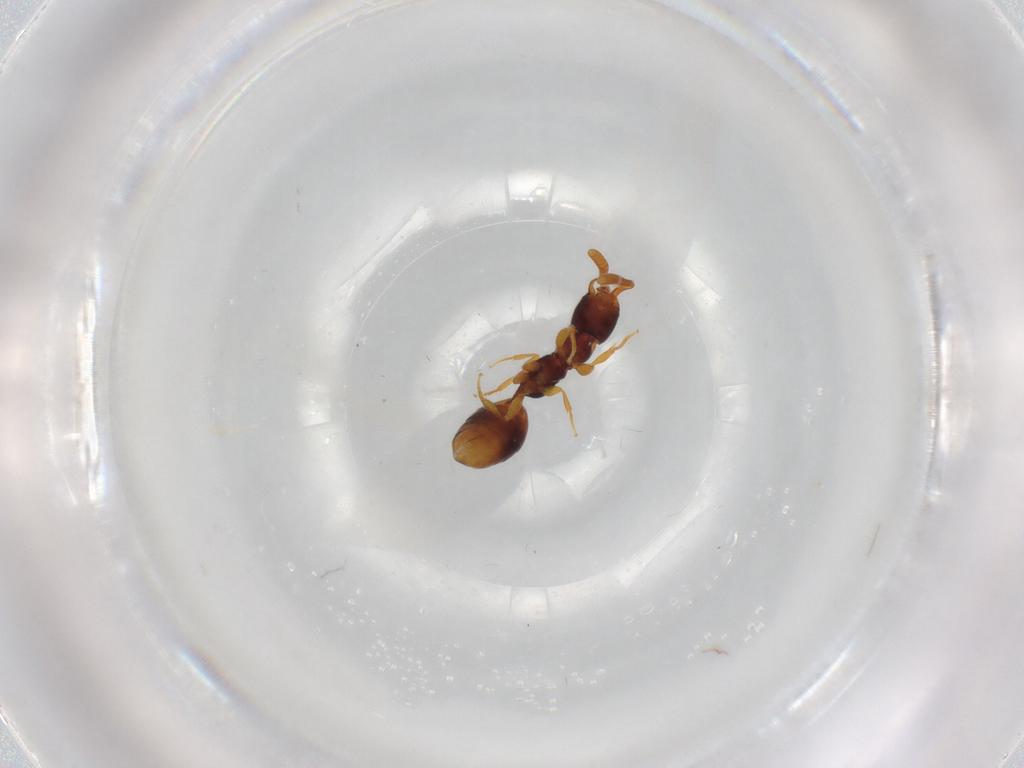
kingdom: Animalia
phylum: Arthropoda
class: Insecta
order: Hymenoptera
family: Bethylidae
